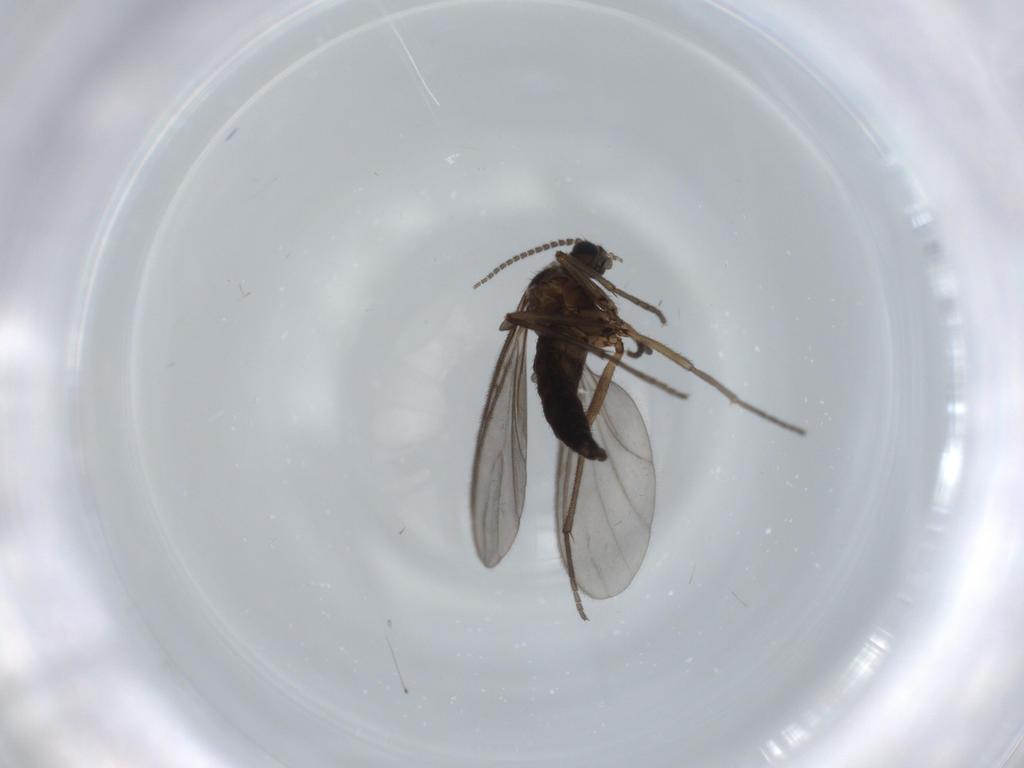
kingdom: Animalia
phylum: Arthropoda
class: Insecta
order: Diptera
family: Stratiomyidae
